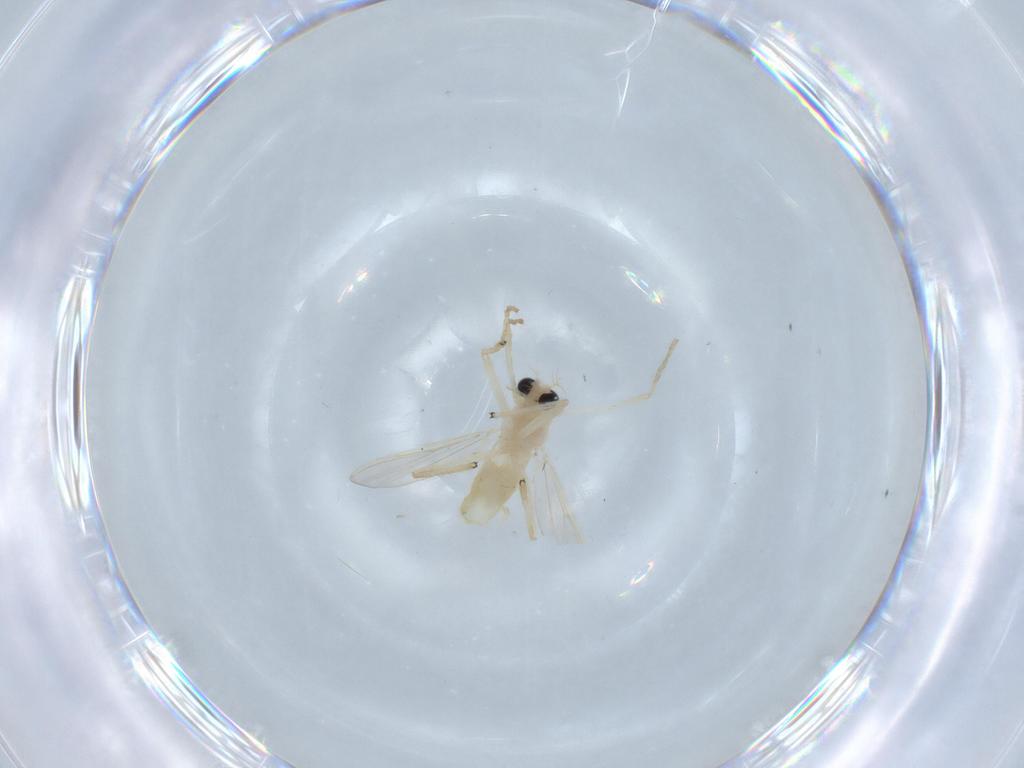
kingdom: Animalia
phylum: Arthropoda
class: Insecta
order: Diptera
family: Chironomidae
